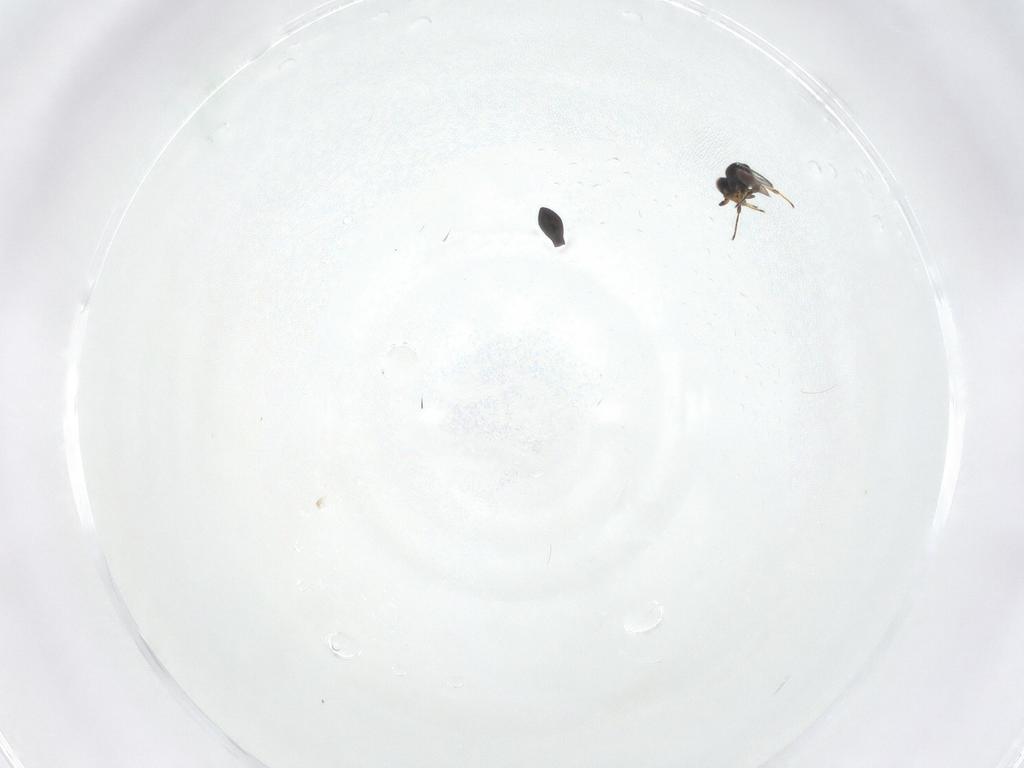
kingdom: Animalia
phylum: Arthropoda
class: Insecta
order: Hymenoptera
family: Platygastridae
